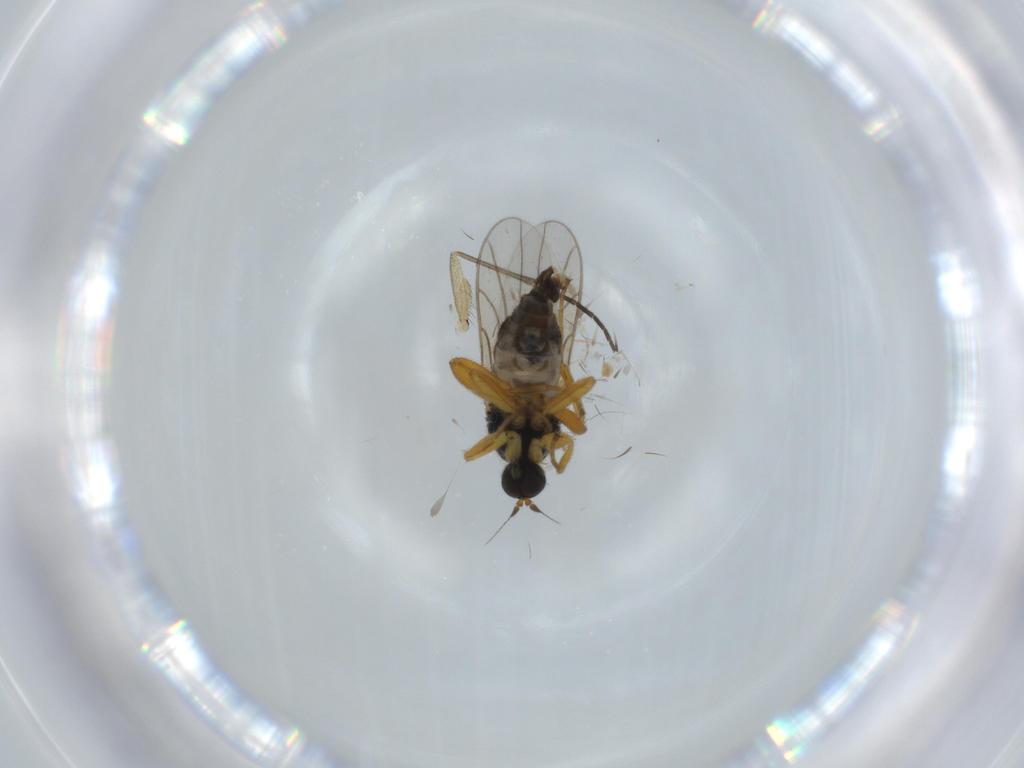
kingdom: Animalia
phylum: Arthropoda
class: Insecta
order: Diptera
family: Hybotidae
